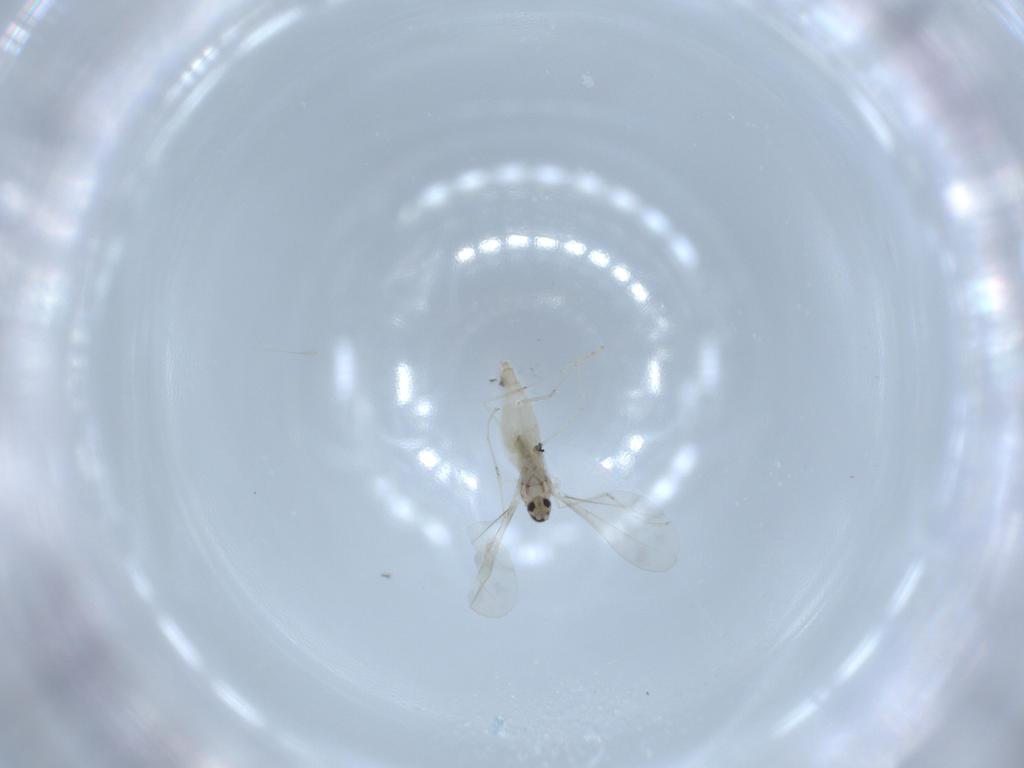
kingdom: Animalia
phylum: Arthropoda
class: Insecta
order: Diptera
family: Cecidomyiidae
